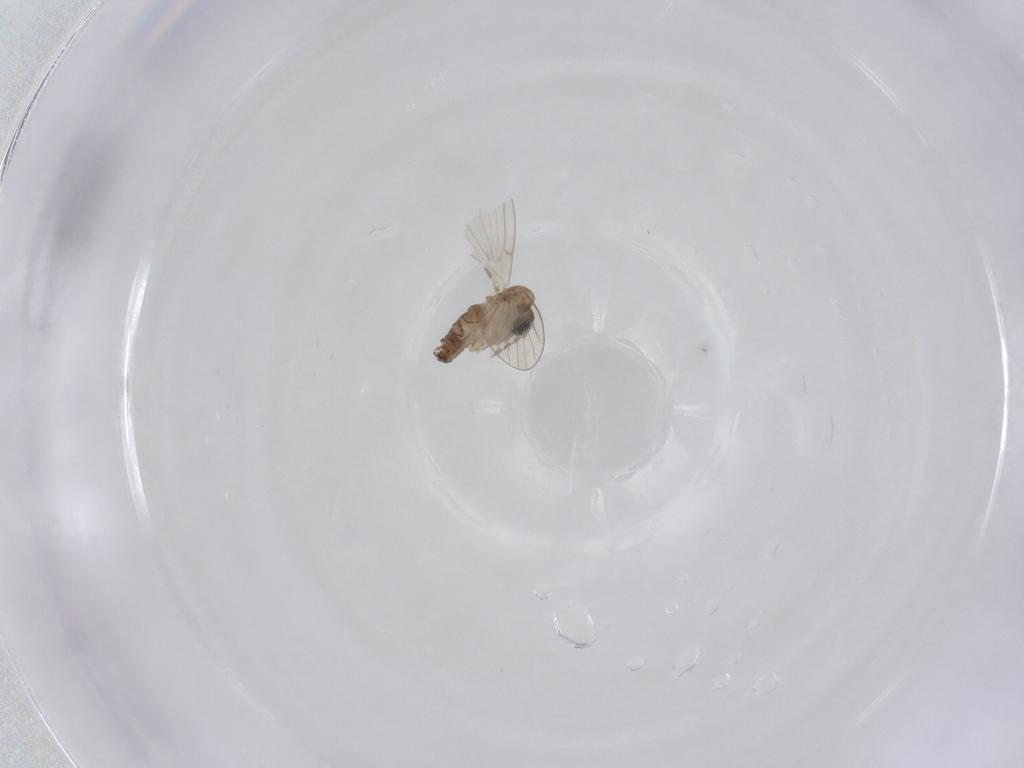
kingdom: Animalia
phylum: Arthropoda
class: Insecta
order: Diptera
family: Psychodidae
